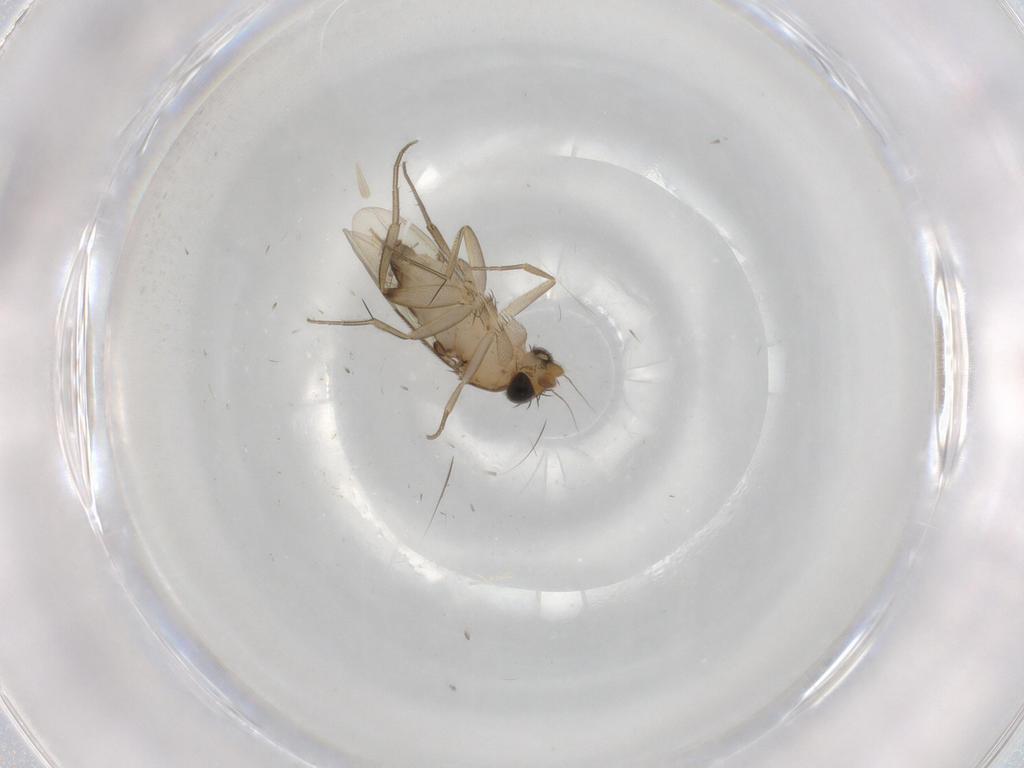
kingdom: Animalia
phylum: Arthropoda
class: Insecta
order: Diptera
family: Phoridae
